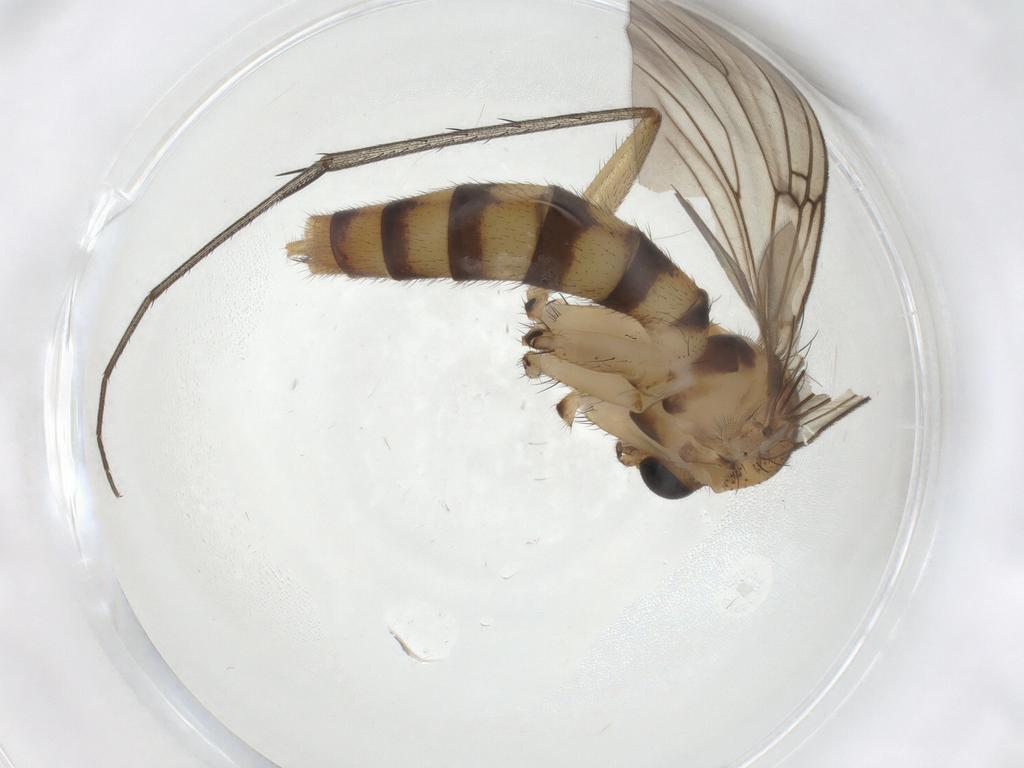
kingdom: Animalia
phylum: Arthropoda
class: Insecta
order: Diptera
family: Mycetophilidae
